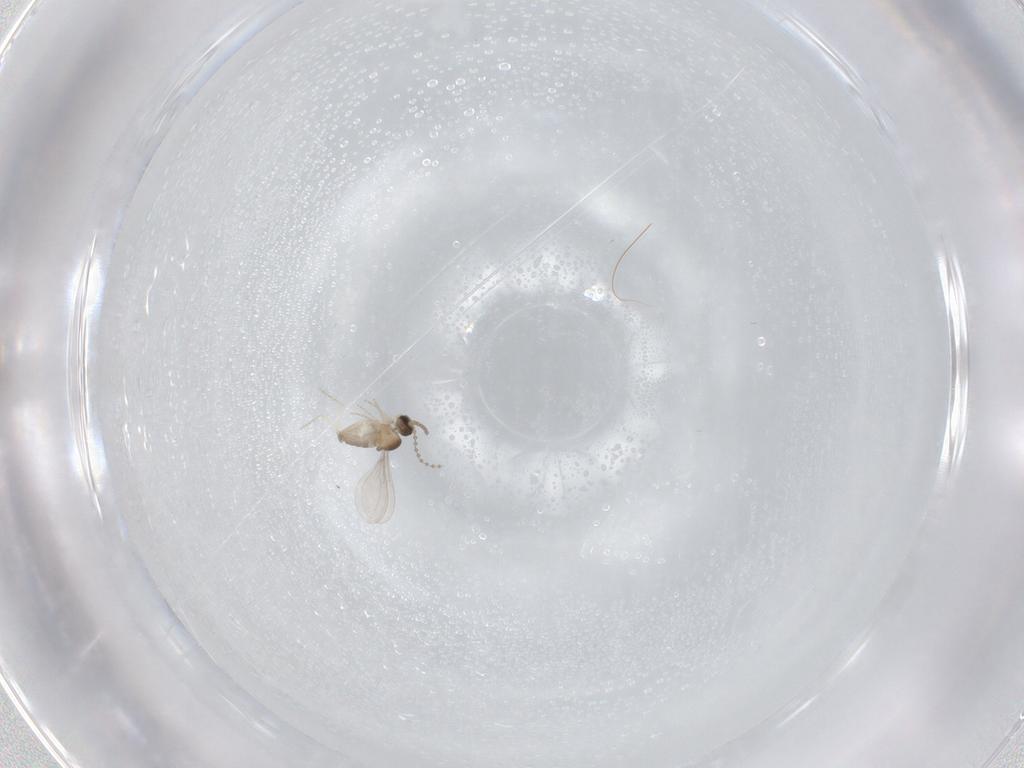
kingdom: Animalia
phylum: Arthropoda
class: Insecta
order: Diptera
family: Cecidomyiidae
